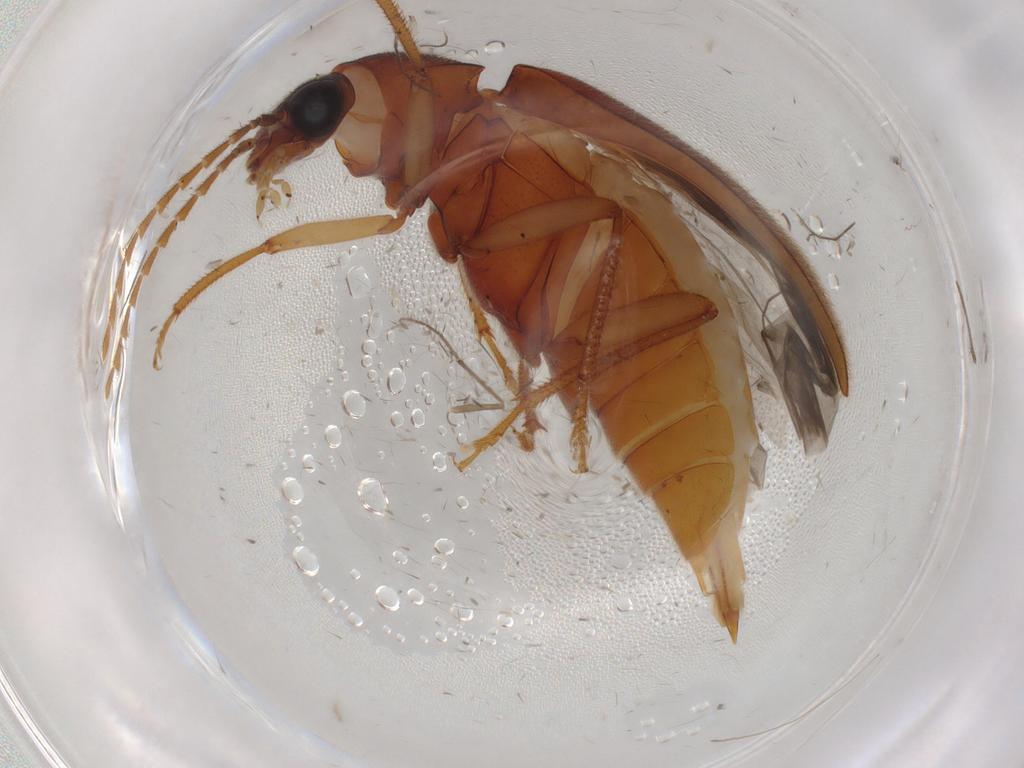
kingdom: Animalia
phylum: Arthropoda
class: Insecta
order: Coleoptera
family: Ptilodactylidae
